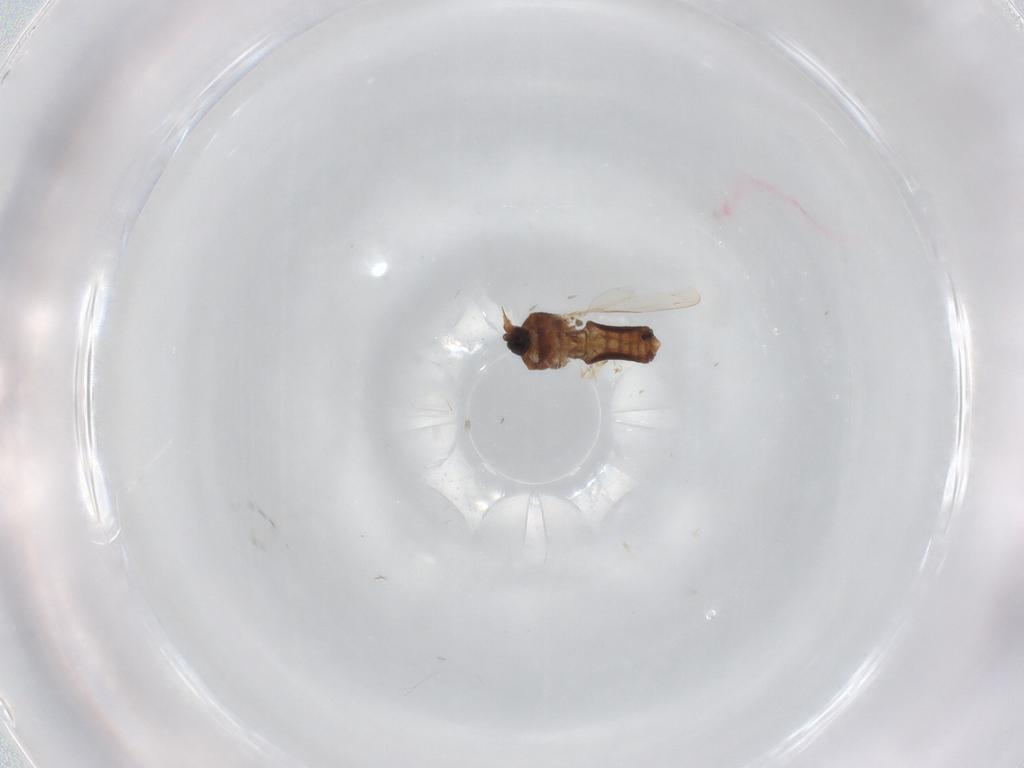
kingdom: Animalia
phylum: Arthropoda
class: Insecta
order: Diptera
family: Ceratopogonidae
